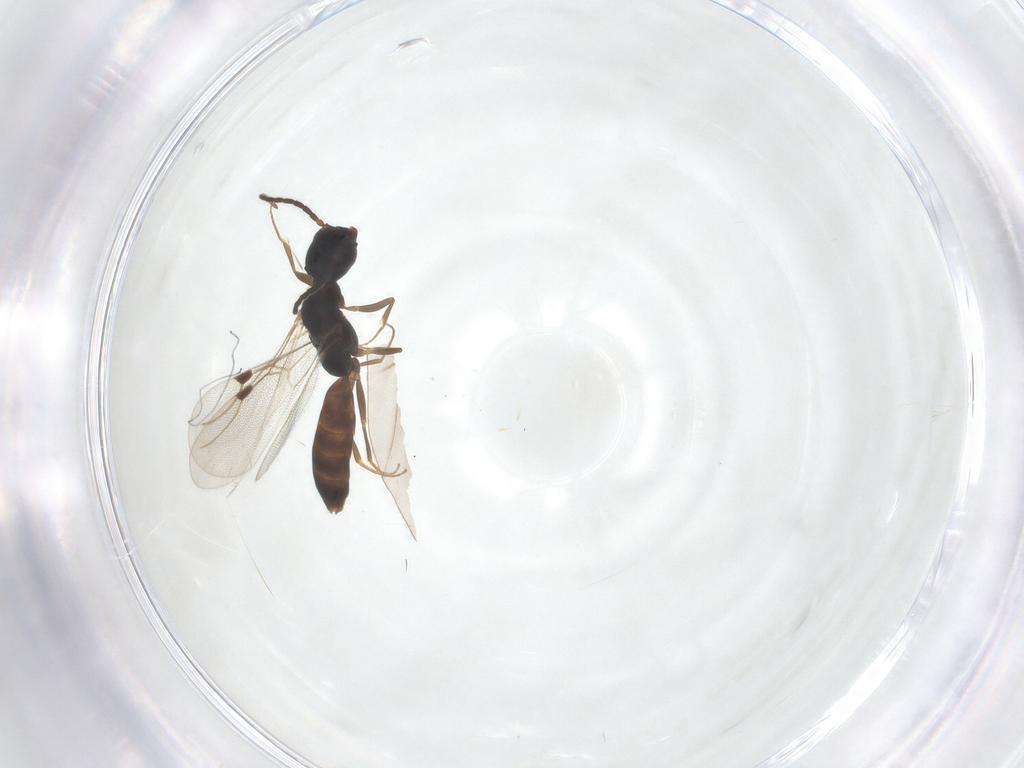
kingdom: Animalia
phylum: Arthropoda
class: Insecta
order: Hymenoptera
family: Bethylidae
